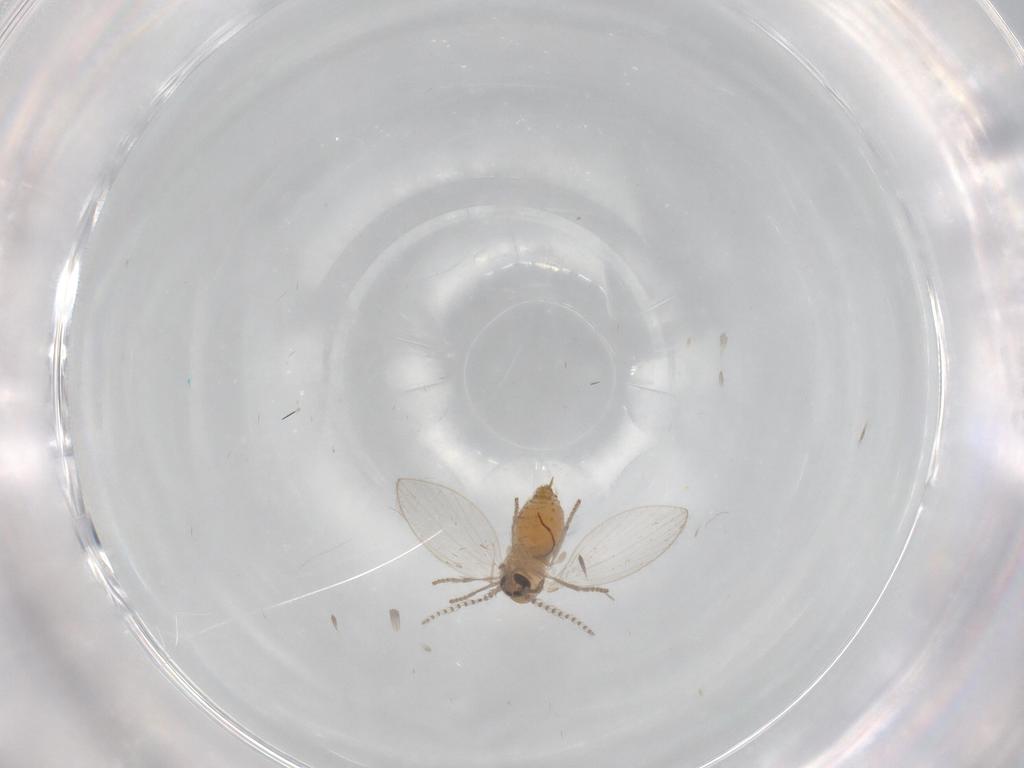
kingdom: Animalia
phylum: Arthropoda
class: Insecta
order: Diptera
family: Psychodidae
